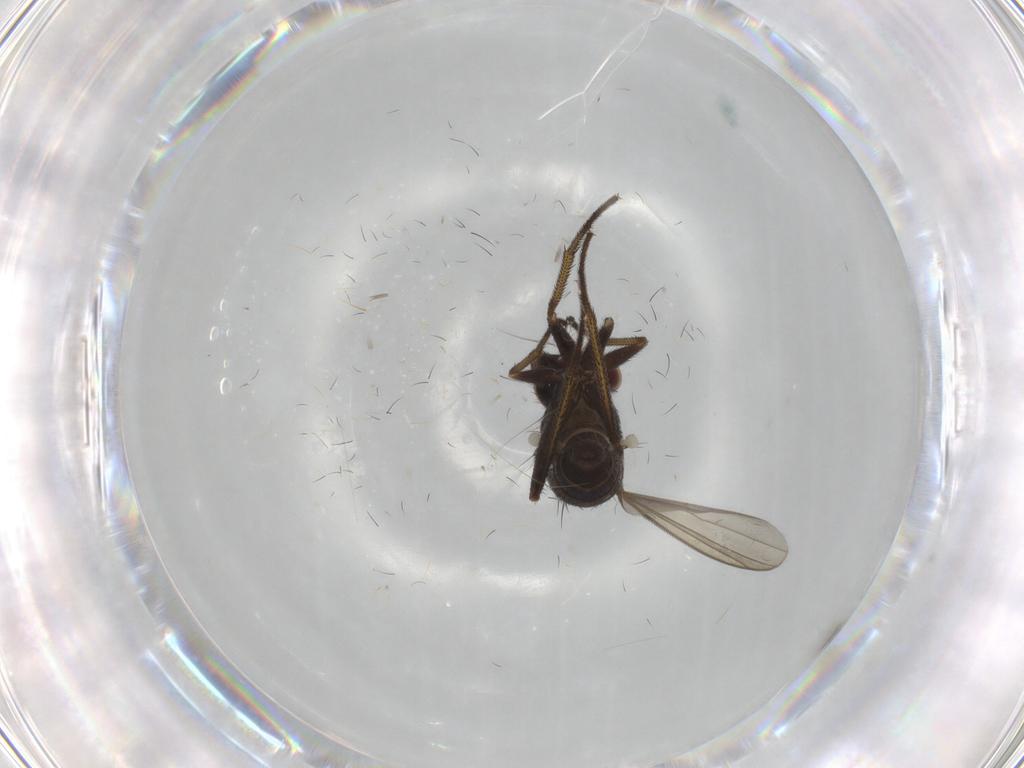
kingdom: Animalia
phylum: Arthropoda
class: Insecta
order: Diptera
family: Dolichopodidae
